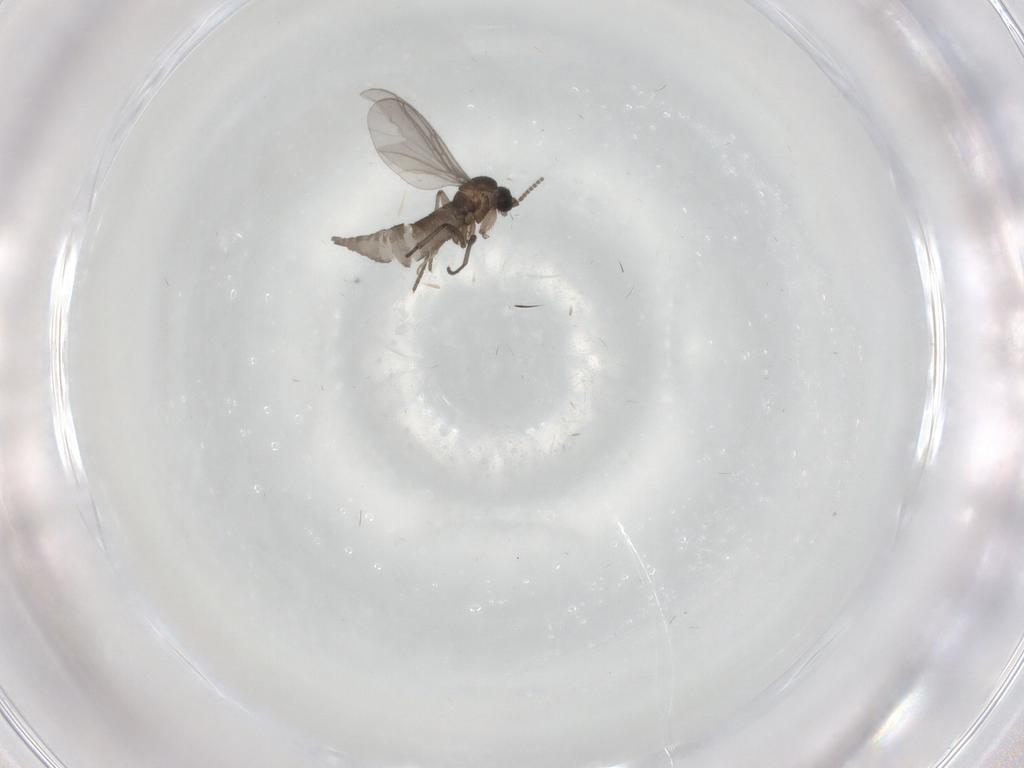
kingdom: Animalia
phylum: Arthropoda
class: Insecta
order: Diptera
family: Sciaridae
